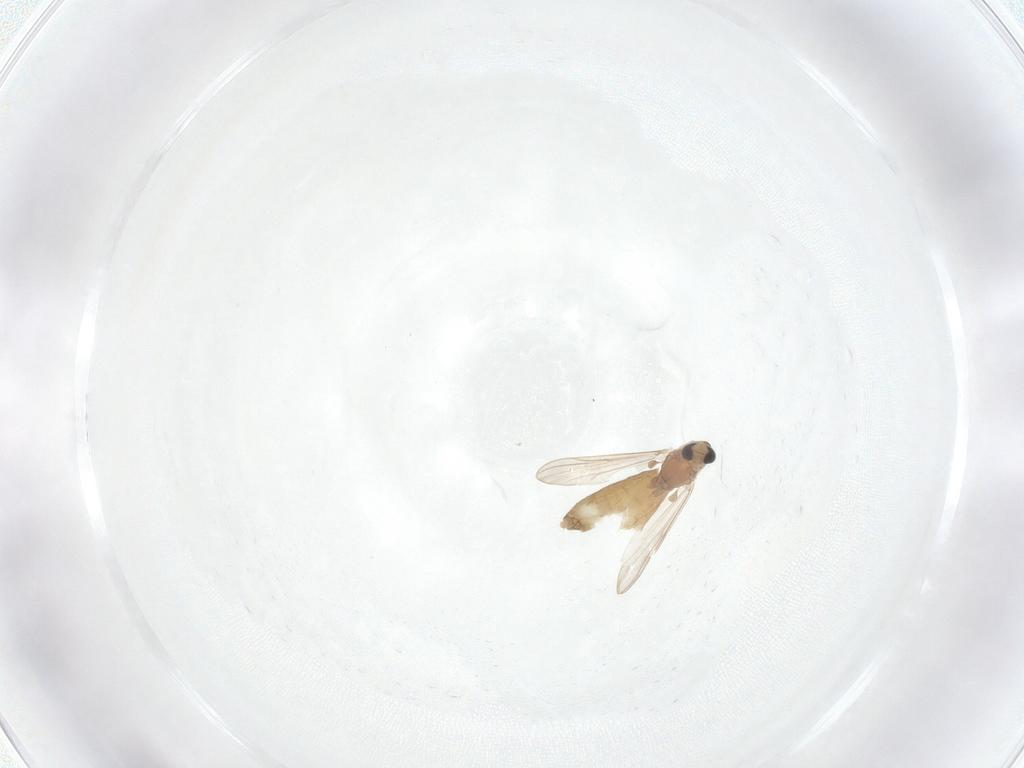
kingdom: Animalia
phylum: Arthropoda
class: Insecta
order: Diptera
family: Chironomidae
